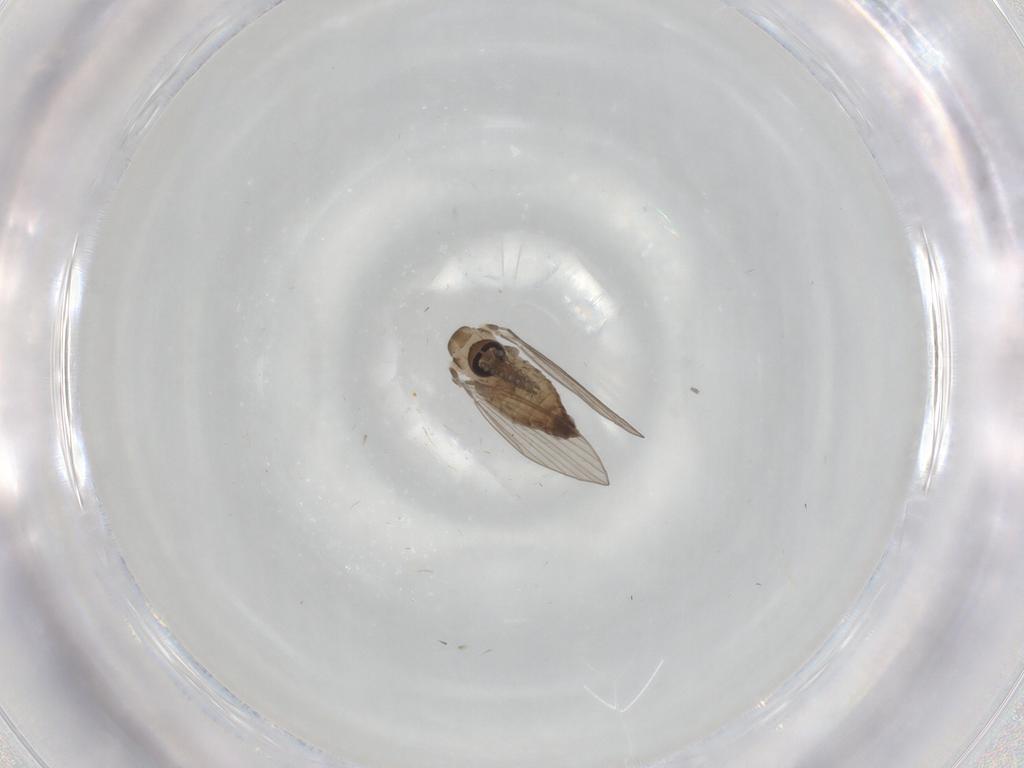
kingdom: Animalia
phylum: Arthropoda
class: Insecta
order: Diptera
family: Psychodidae
